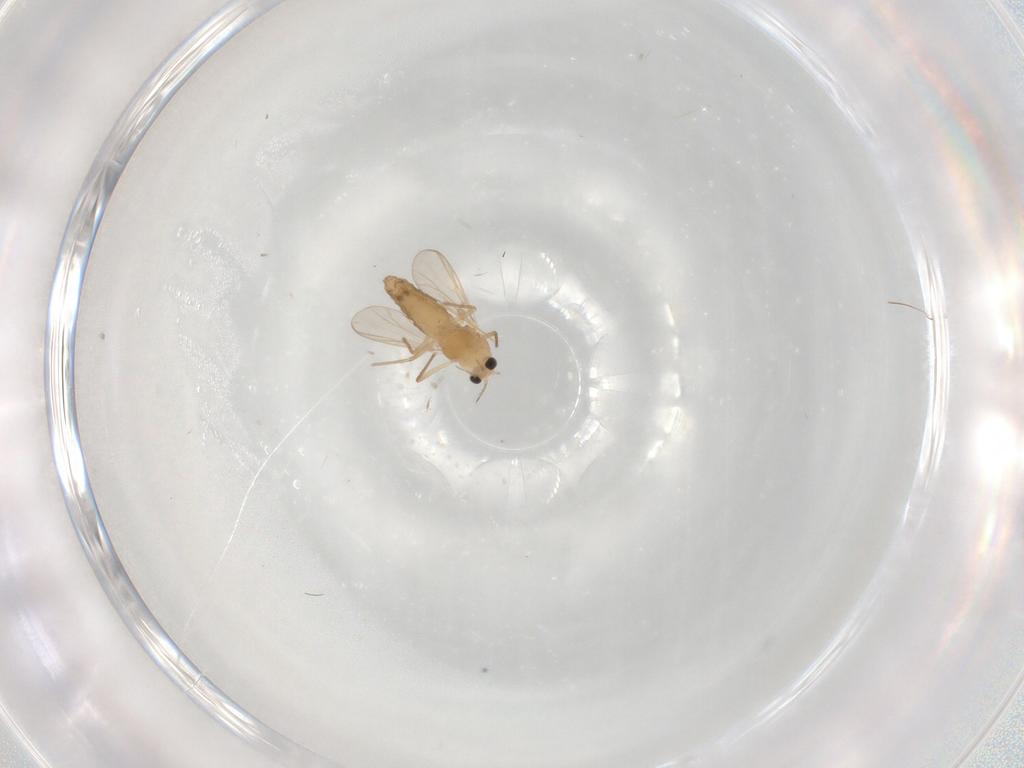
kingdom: Animalia
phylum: Arthropoda
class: Insecta
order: Diptera
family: Chironomidae
